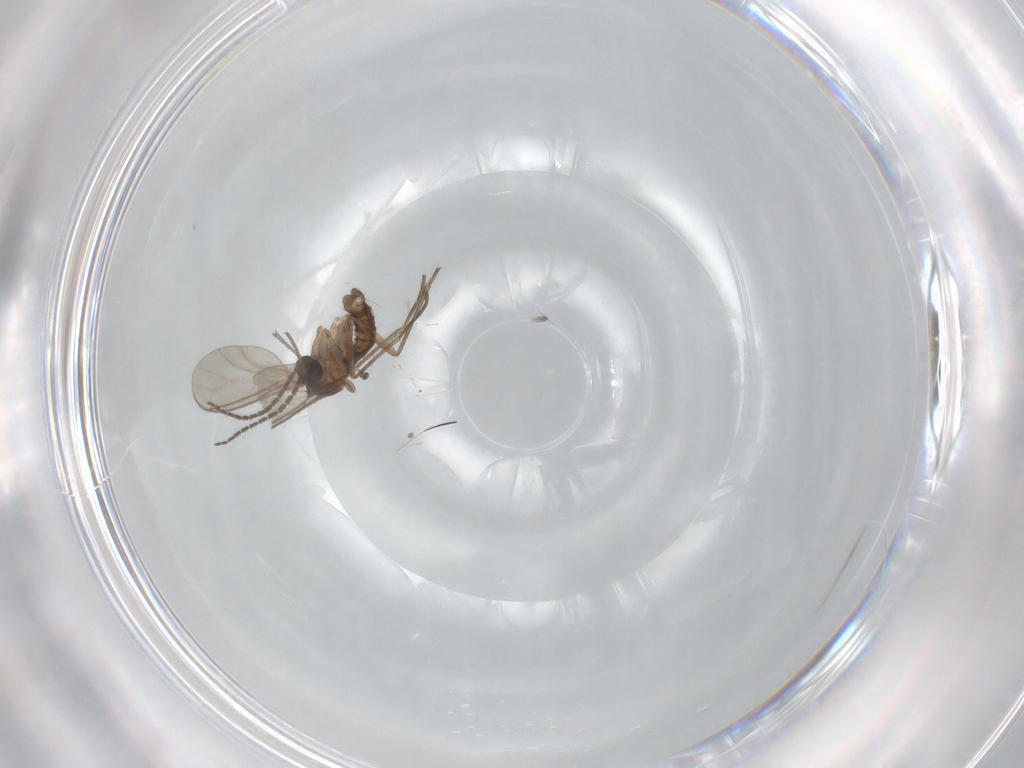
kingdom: Animalia
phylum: Arthropoda
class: Insecta
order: Diptera
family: Sciaridae
